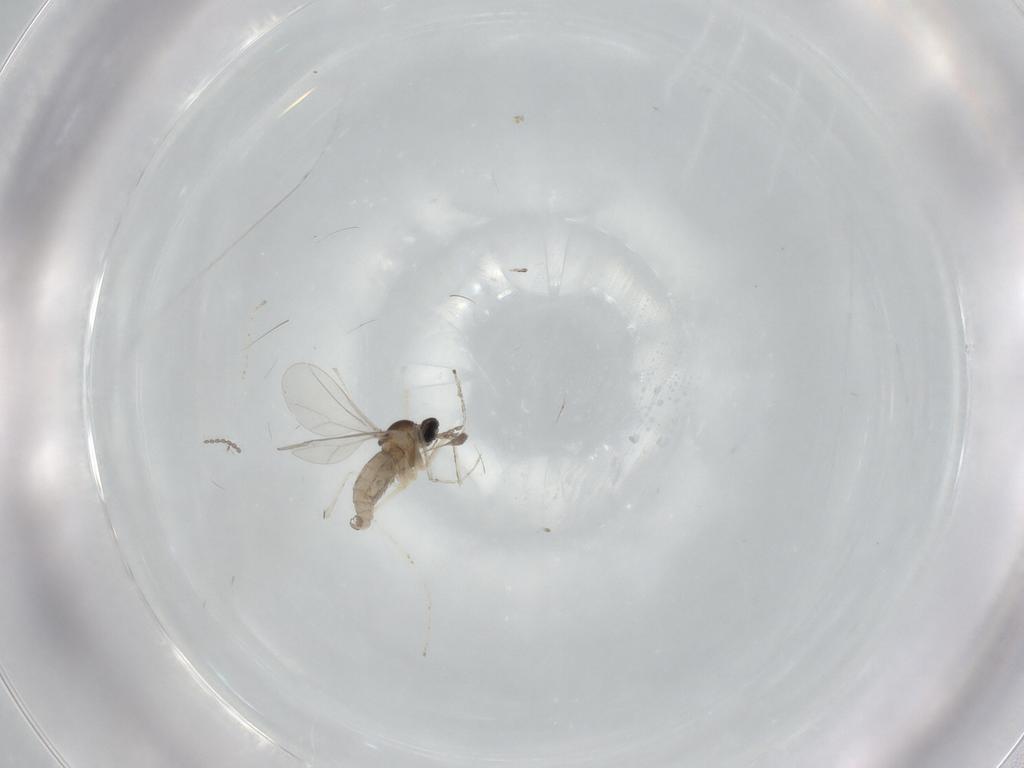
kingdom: Animalia
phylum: Arthropoda
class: Insecta
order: Diptera
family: Cecidomyiidae
